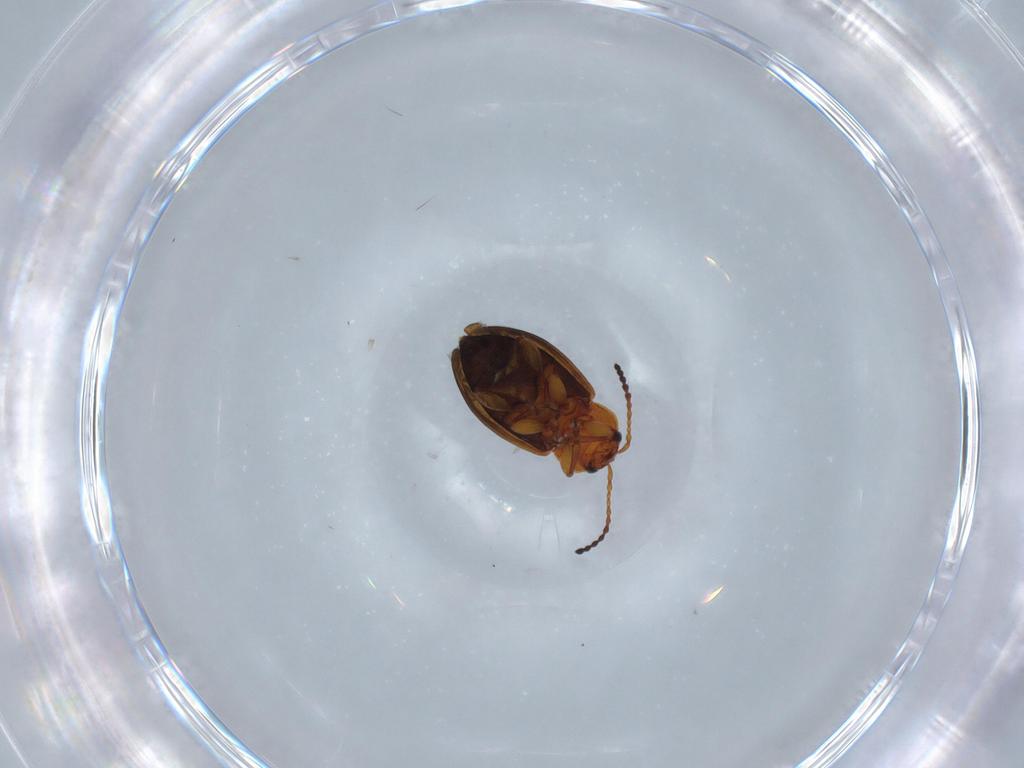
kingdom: Animalia
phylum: Arthropoda
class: Insecta
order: Coleoptera
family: Chrysomelidae
